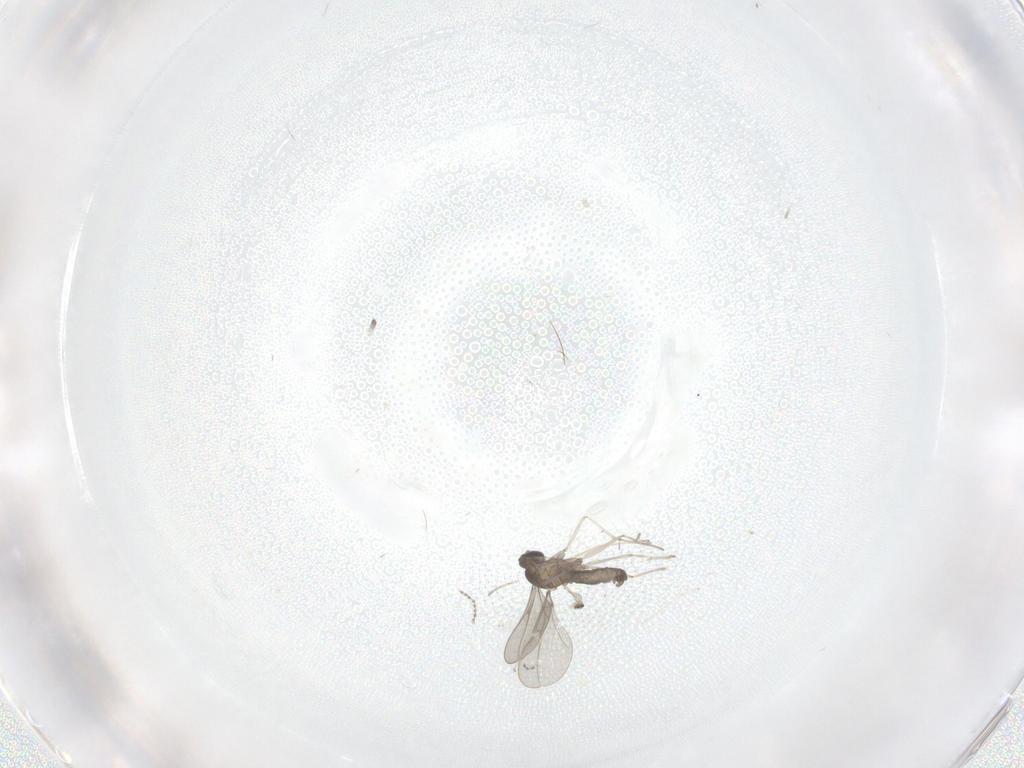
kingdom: Animalia
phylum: Arthropoda
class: Insecta
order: Diptera
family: Cecidomyiidae
